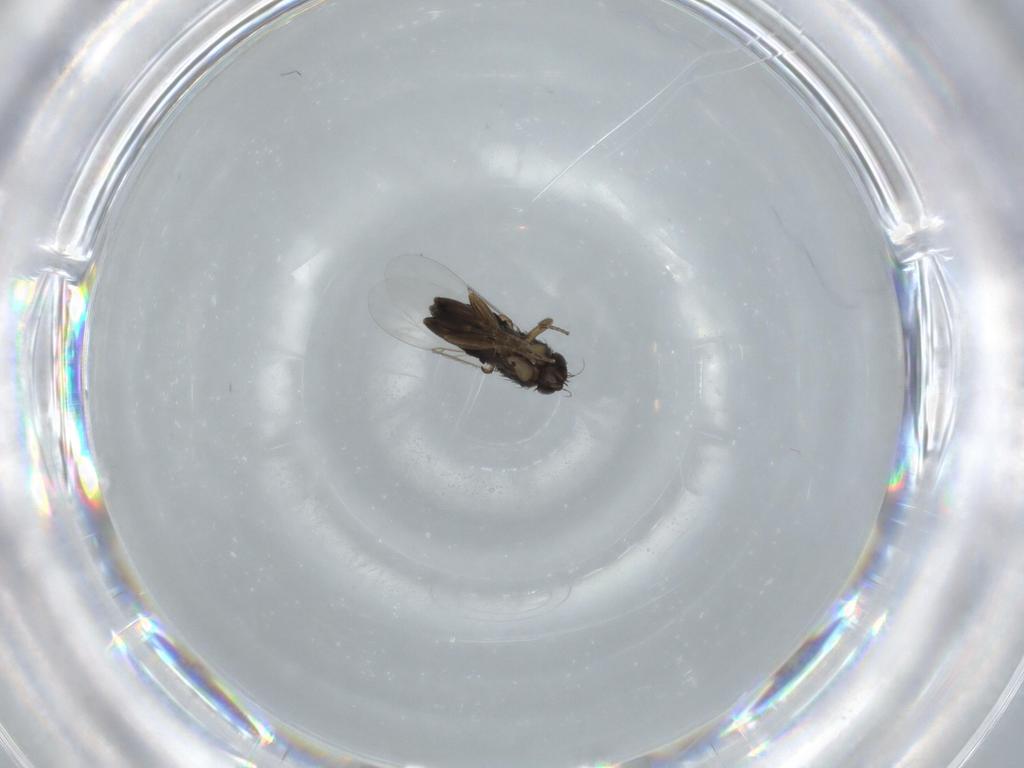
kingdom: Animalia
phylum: Arthropoda
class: Insecta
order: Diptera
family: Phoridae
